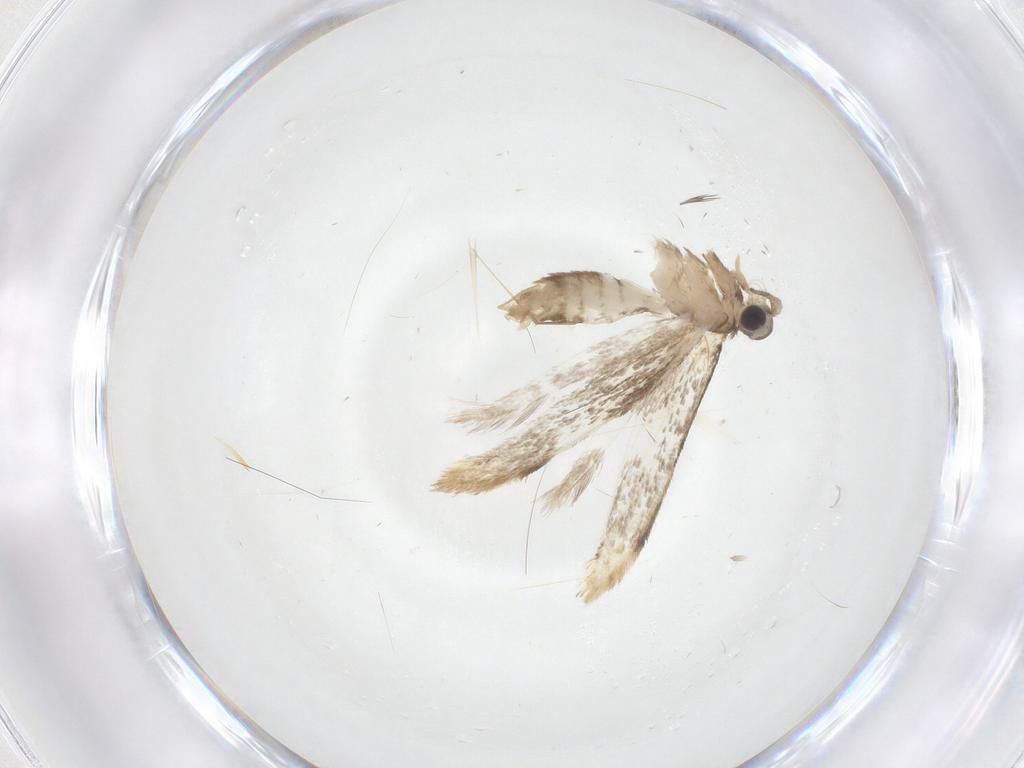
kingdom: Animalia
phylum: Arthropoda
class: Insecta
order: Lepidoptera
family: Dryadaulidae
